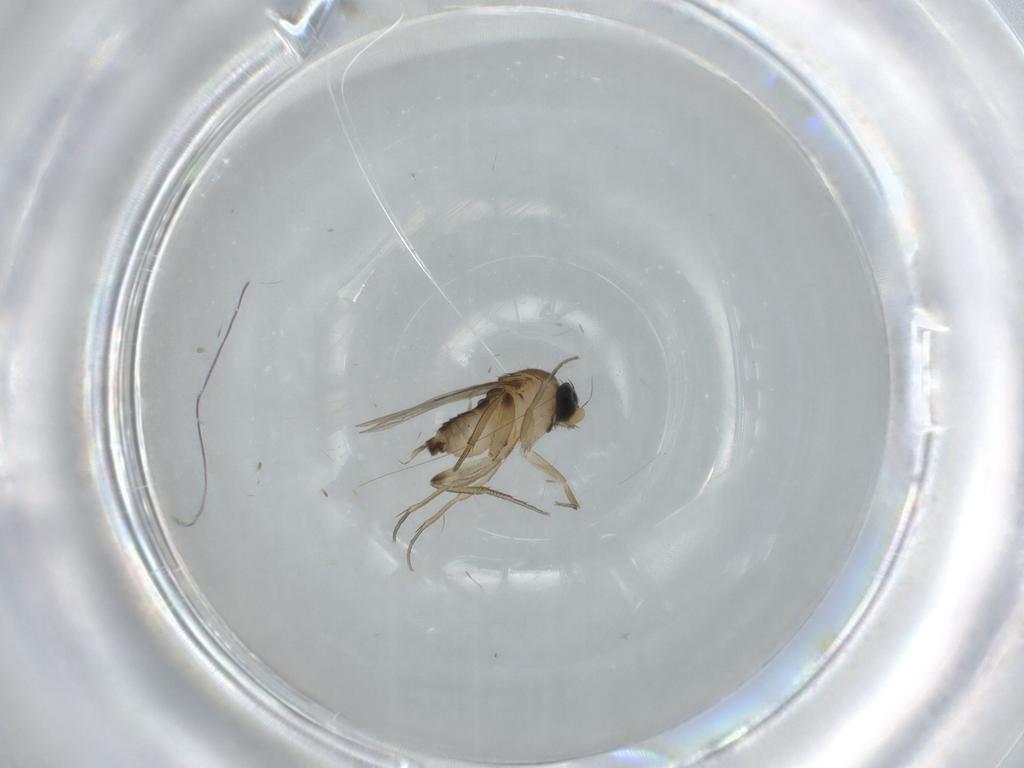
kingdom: Animalia
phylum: Arthropoda
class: Insecta
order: Diptera
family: Phoridae
